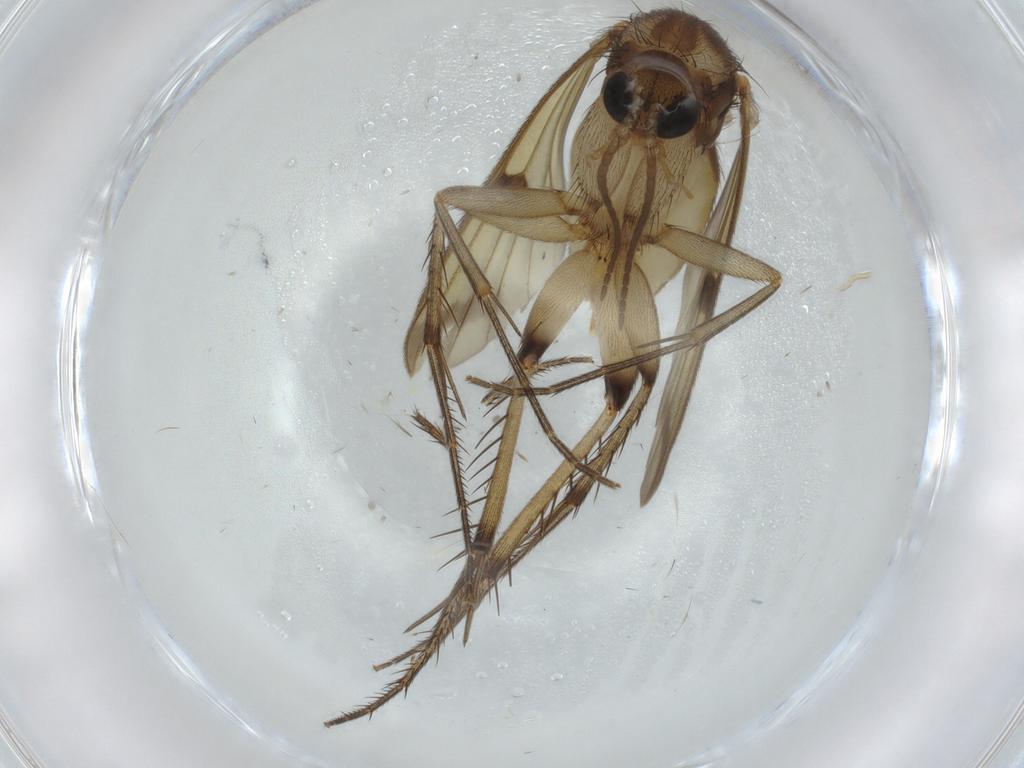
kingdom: Animalia
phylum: Arthropoda
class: Insecta
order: Diptera
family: Mycetophilidae
